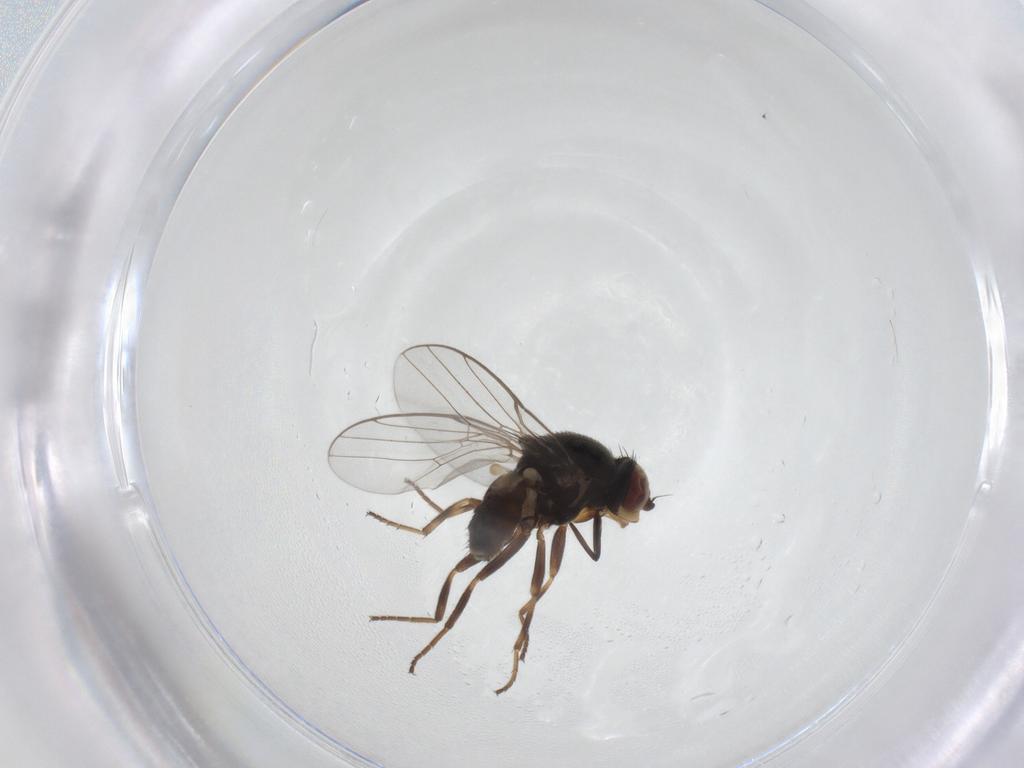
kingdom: Animalia
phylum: Arthropoda
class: Insecta
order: Diptera
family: Chloropidae
